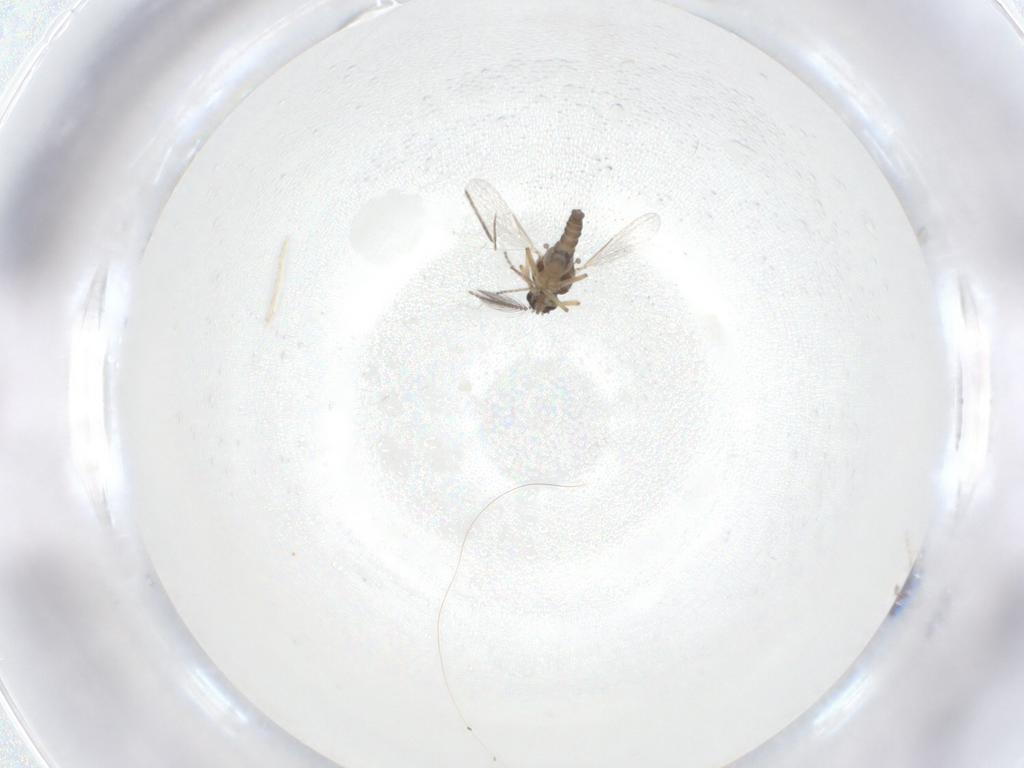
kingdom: Animalia
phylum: Arthropoda
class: Insecta
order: Diptera
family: Ceratopogonidae
